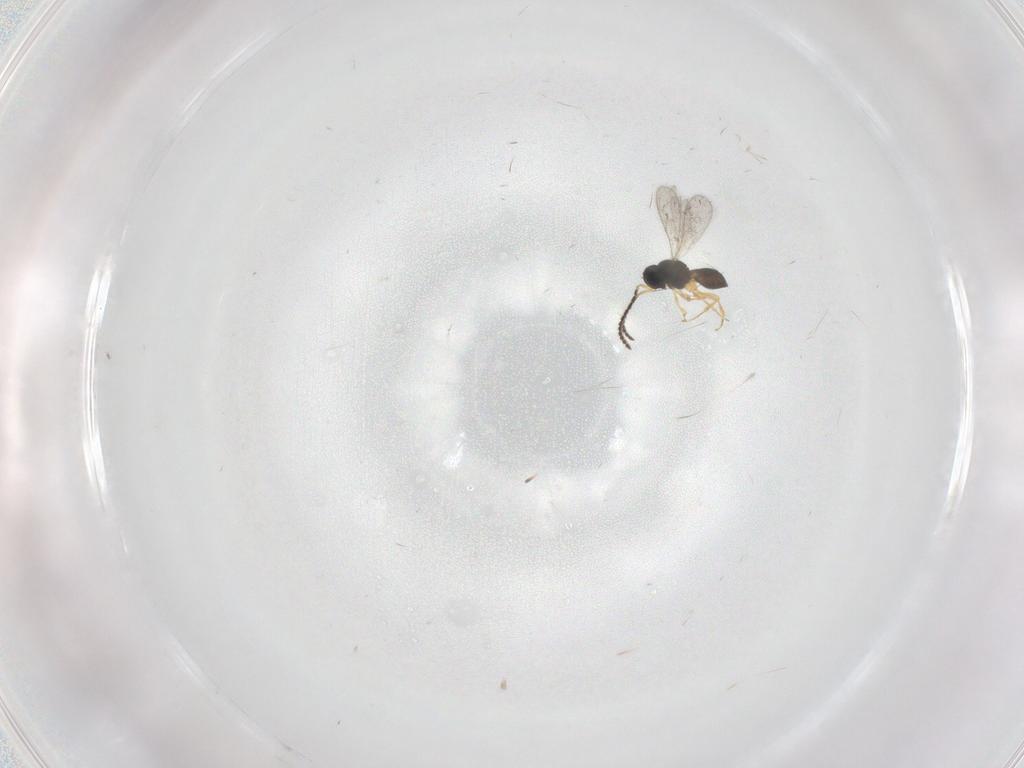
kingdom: Animalia
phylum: Arthropoda
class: Insecta
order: Hymenoptera
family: Scelionidae
